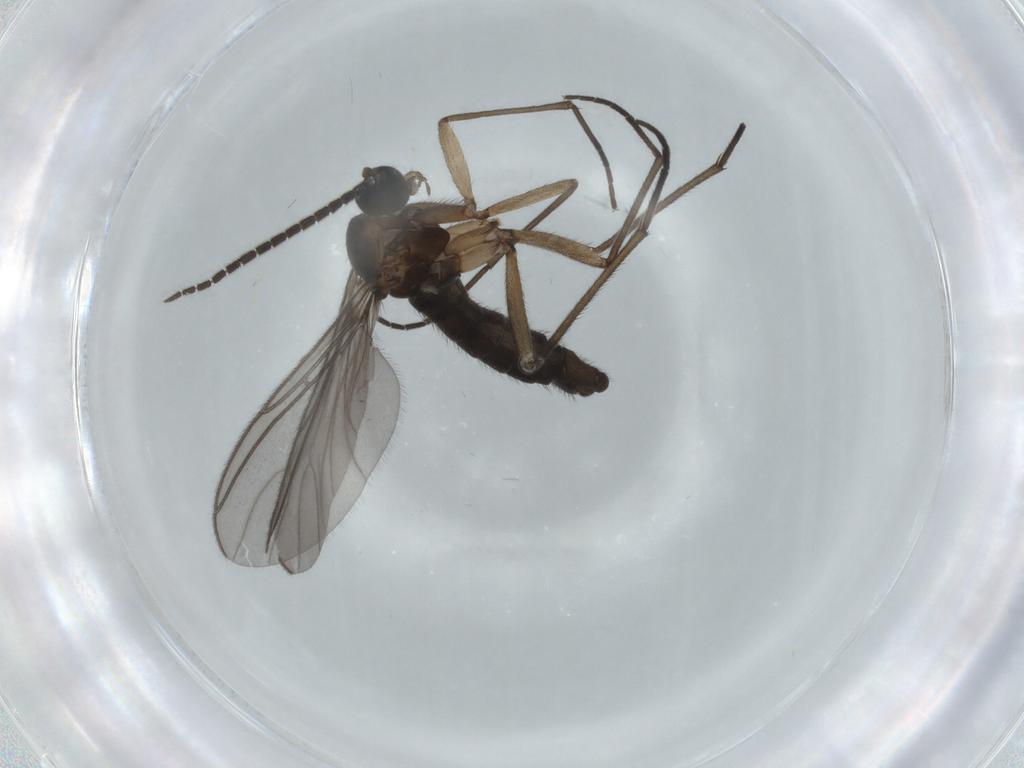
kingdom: Animalia
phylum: Arthropoda
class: Insecta
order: Diptera
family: Sciaridae
